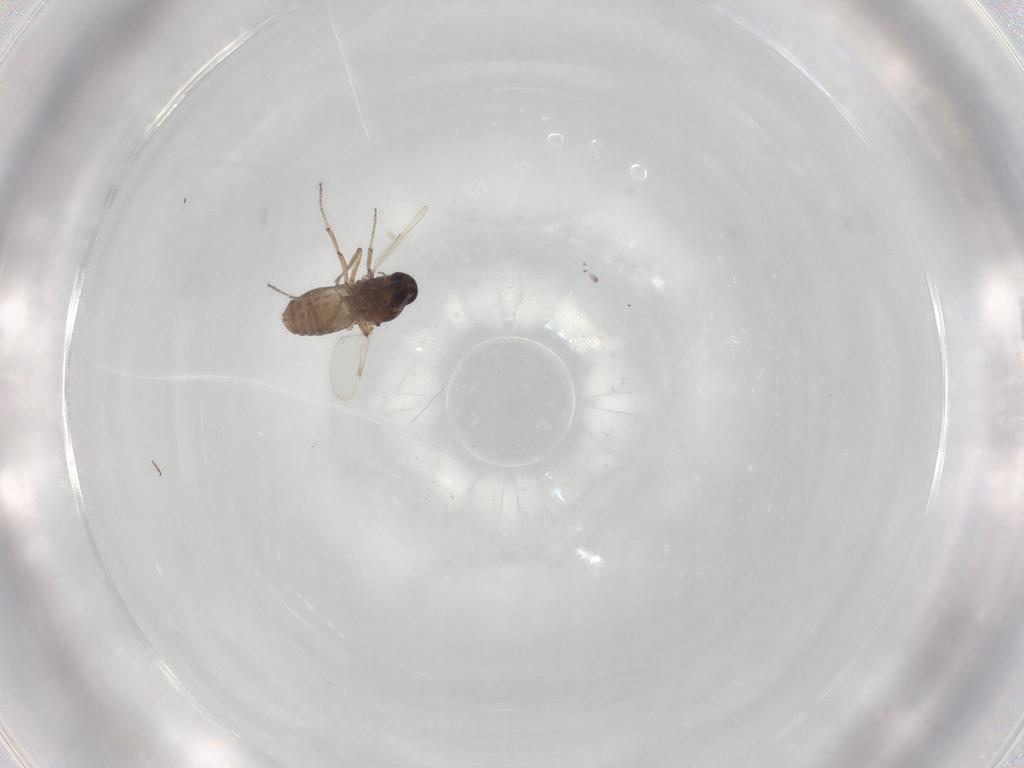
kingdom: Animalia
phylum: Arthropoda
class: Insecta
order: Diptera
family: Ceratopogonidae
